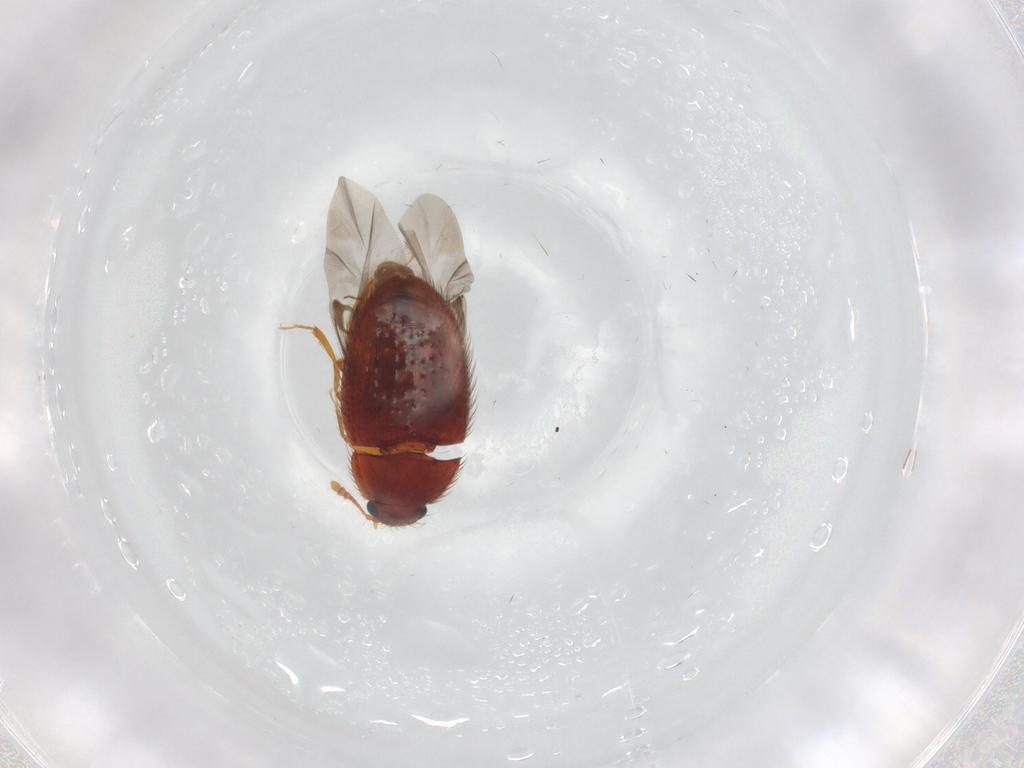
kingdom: Animalia
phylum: Arthropoda
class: Insecta
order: Coleoptera
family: Biphyllidae
